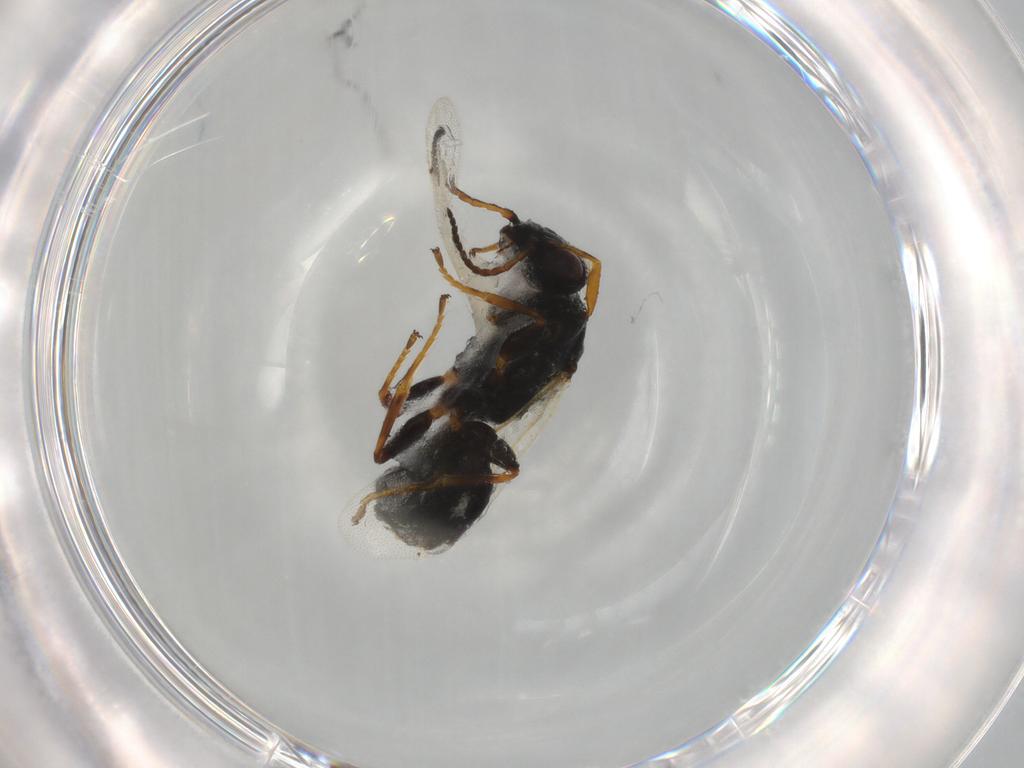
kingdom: Animalia
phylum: Arthropoda
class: Insecta
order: Hymenoptera
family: Bethylidae
